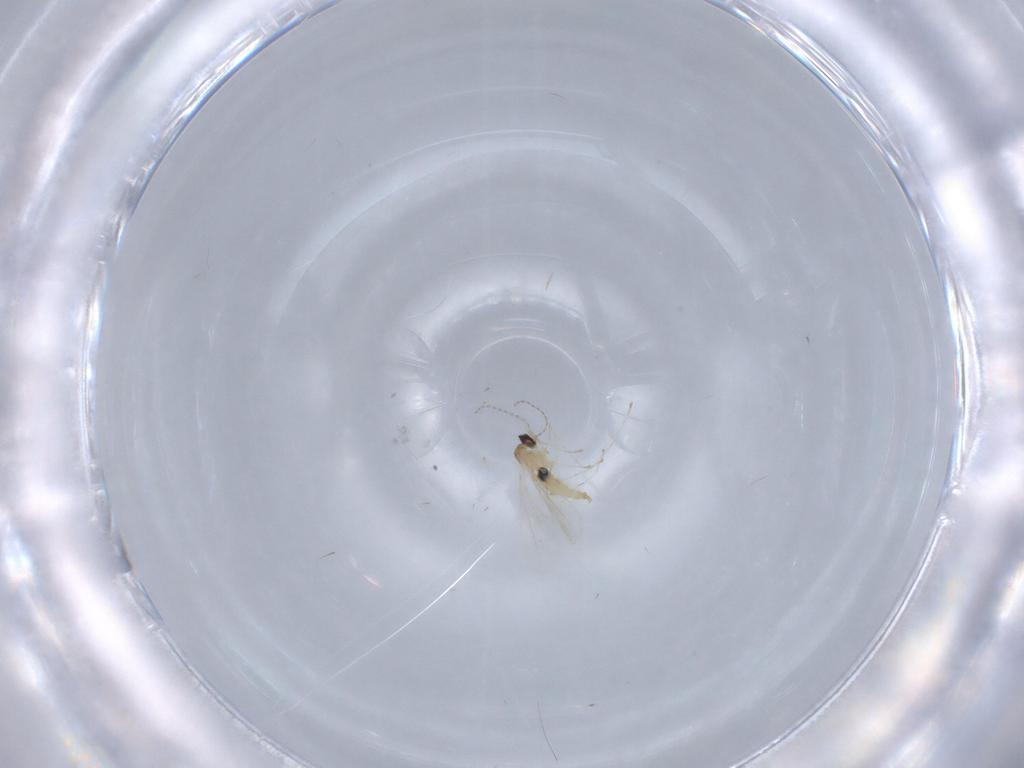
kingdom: Animalia
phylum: Arthropoda
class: Insecta
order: Diptera
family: Cecidomyiidae
